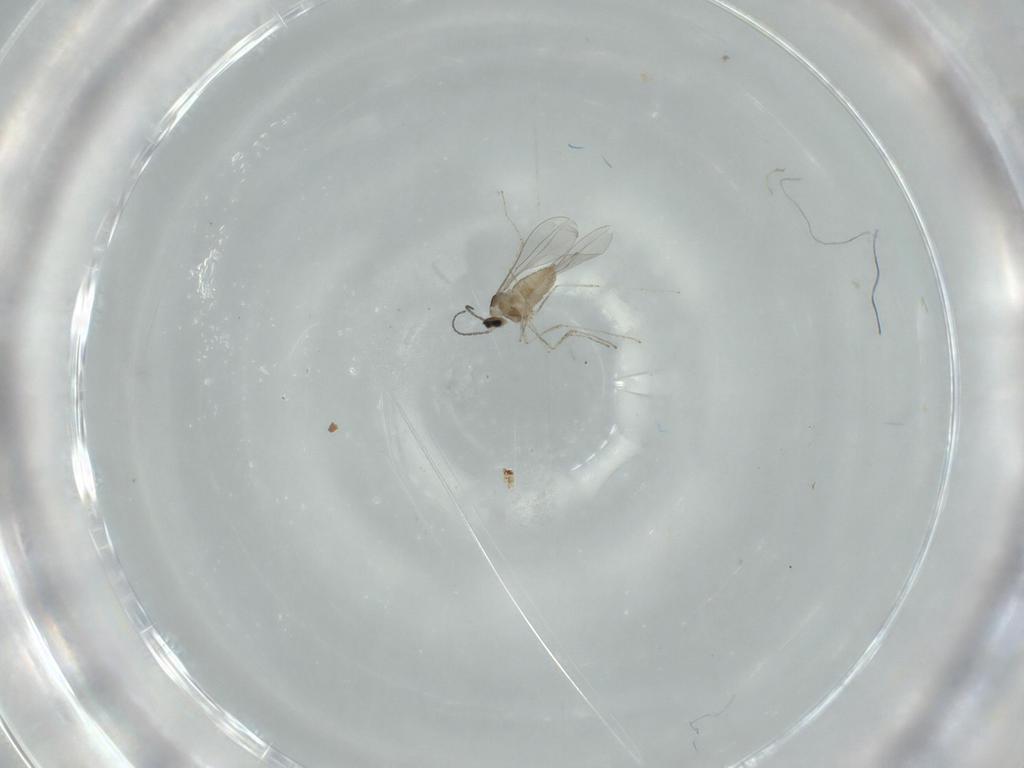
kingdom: Animalia
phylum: Arthropoda
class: Insecta
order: Diptera
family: Cecidomyiidae
